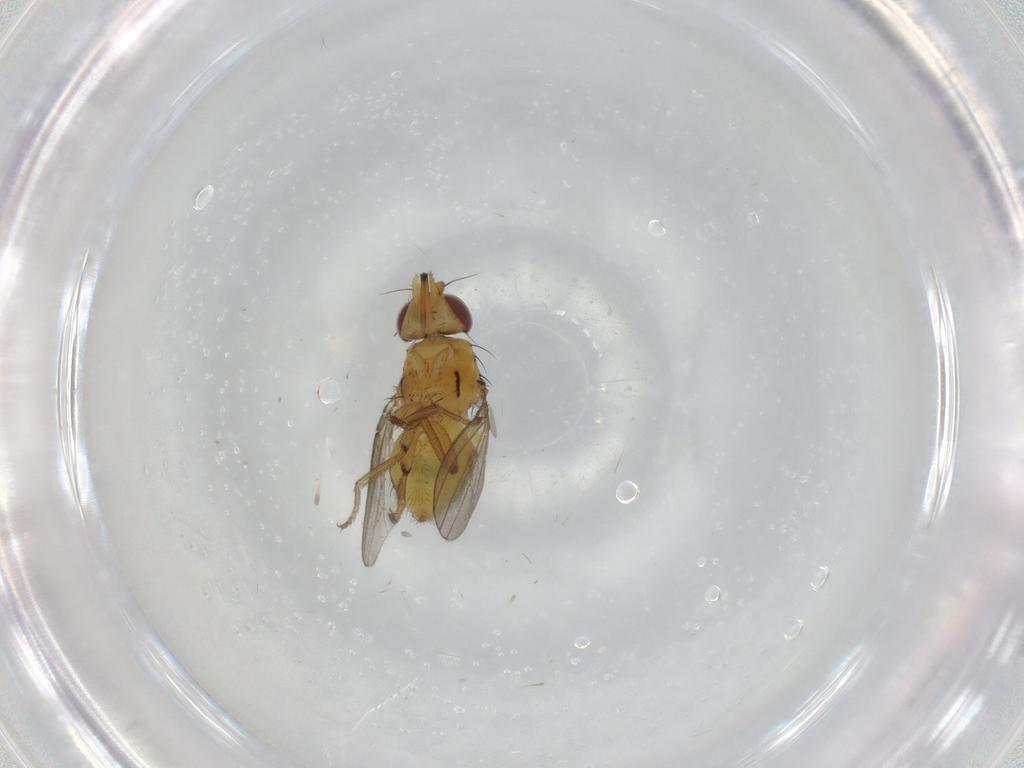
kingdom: Animalia
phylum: Arthropoda
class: Insecta
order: Diptera
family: Milichiidae
